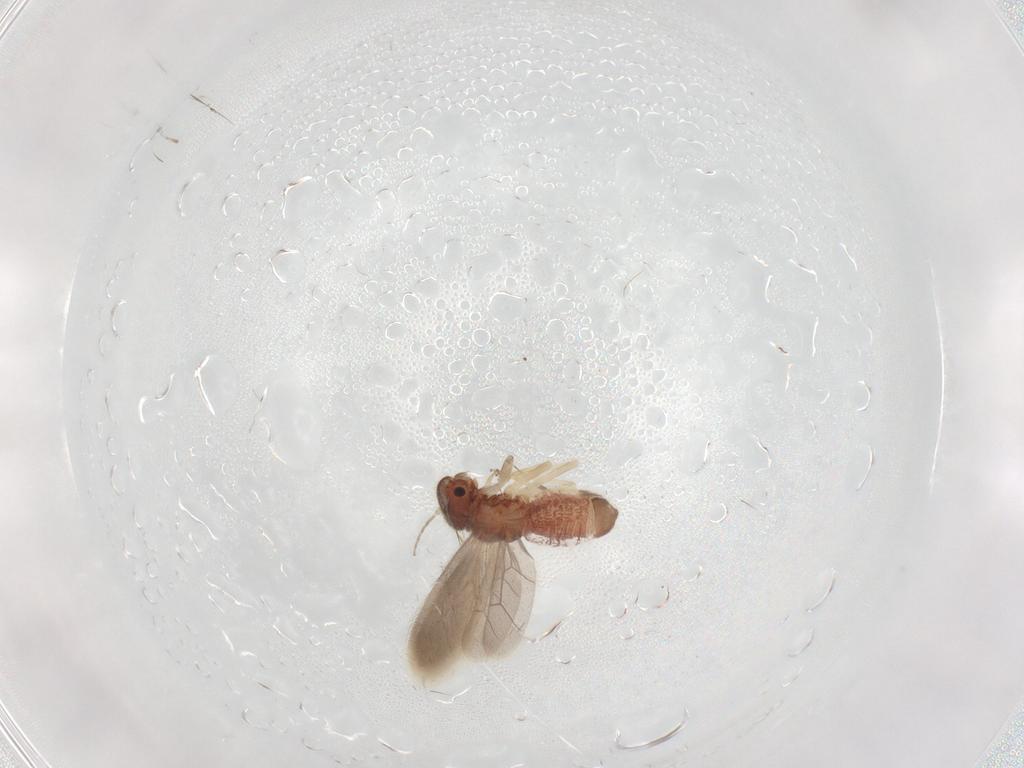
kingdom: Animalia
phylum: Arthropoda
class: Insecta
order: Psocodea
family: Archipsocidae
